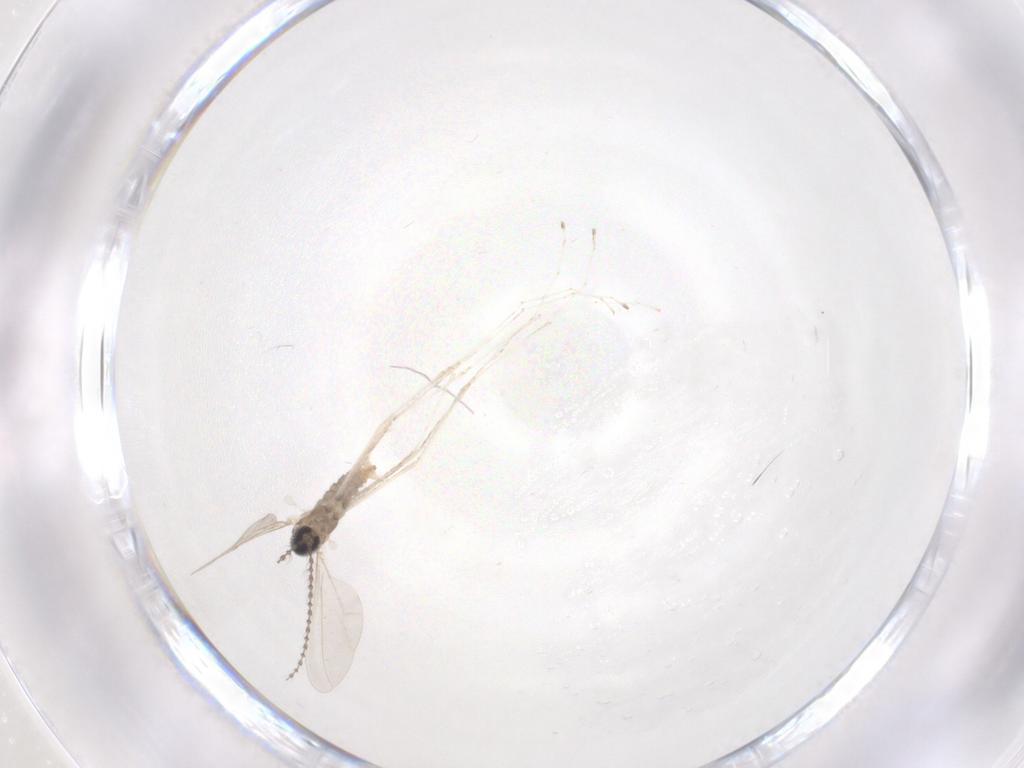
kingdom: Animalia
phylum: Arthropoda
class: Insecta
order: Diptera
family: Cecidomyiidae
